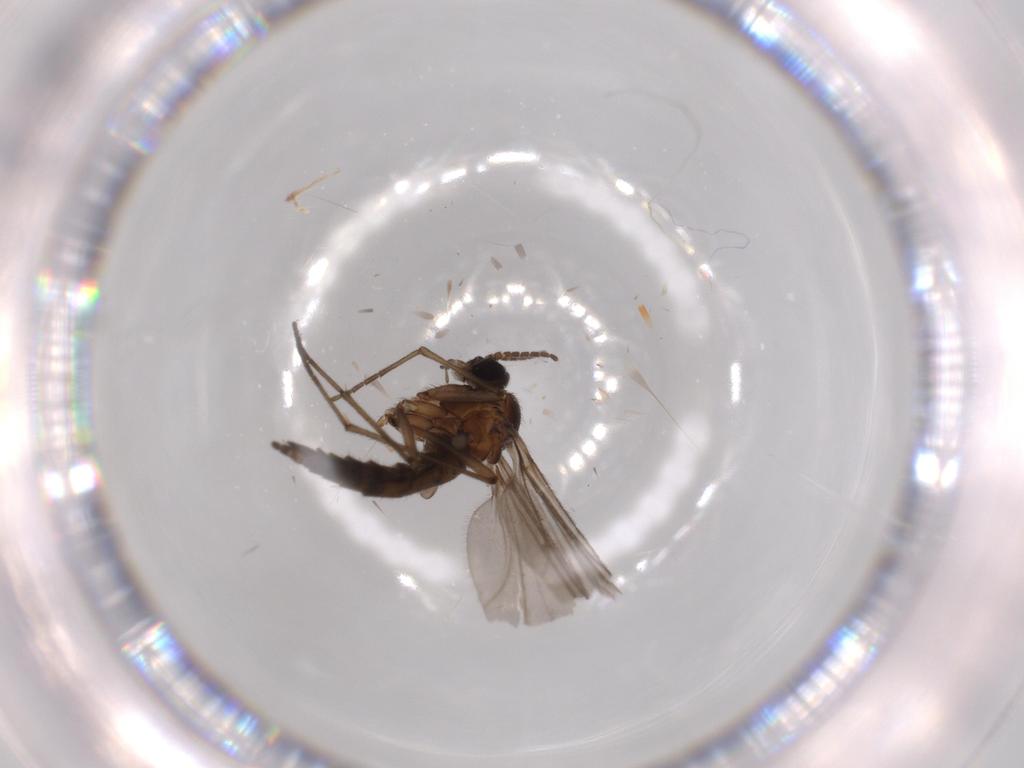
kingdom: Animalia
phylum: Arthropoda
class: Insecta
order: Diptera
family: Sciaridae
